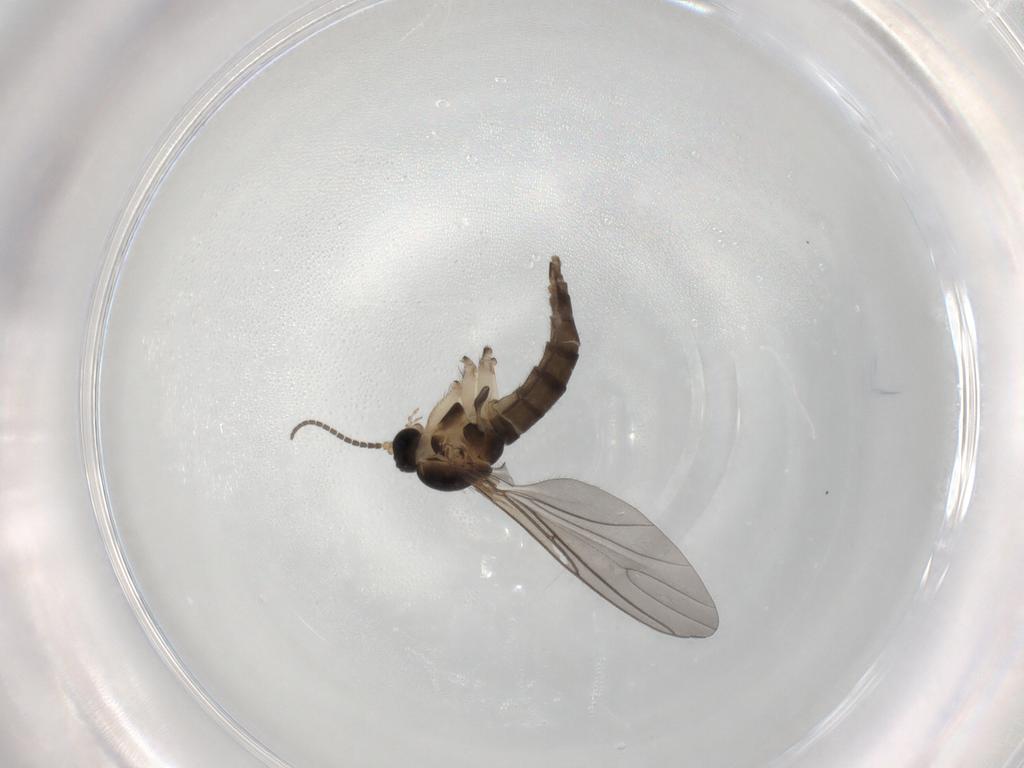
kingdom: Animalia
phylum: Arthropoda
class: Insecta
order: Diptera
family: Sciaridae
